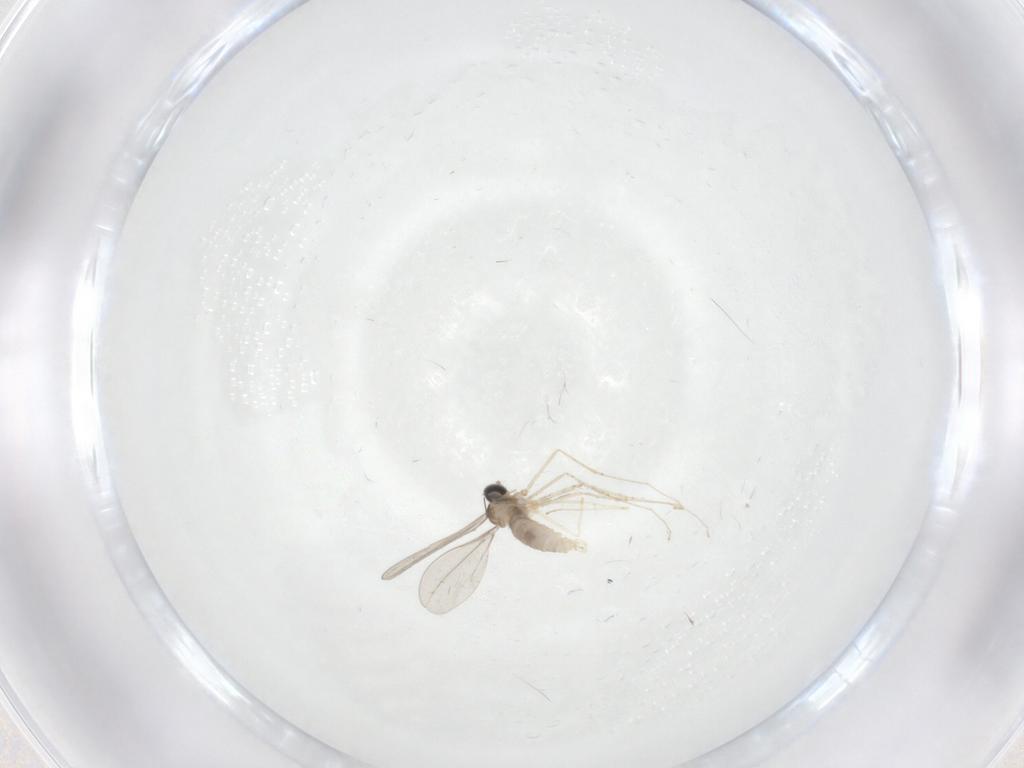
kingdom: Animalia
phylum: Arthropoda
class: Insecta
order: Diptera
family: Cecidomyiidae
